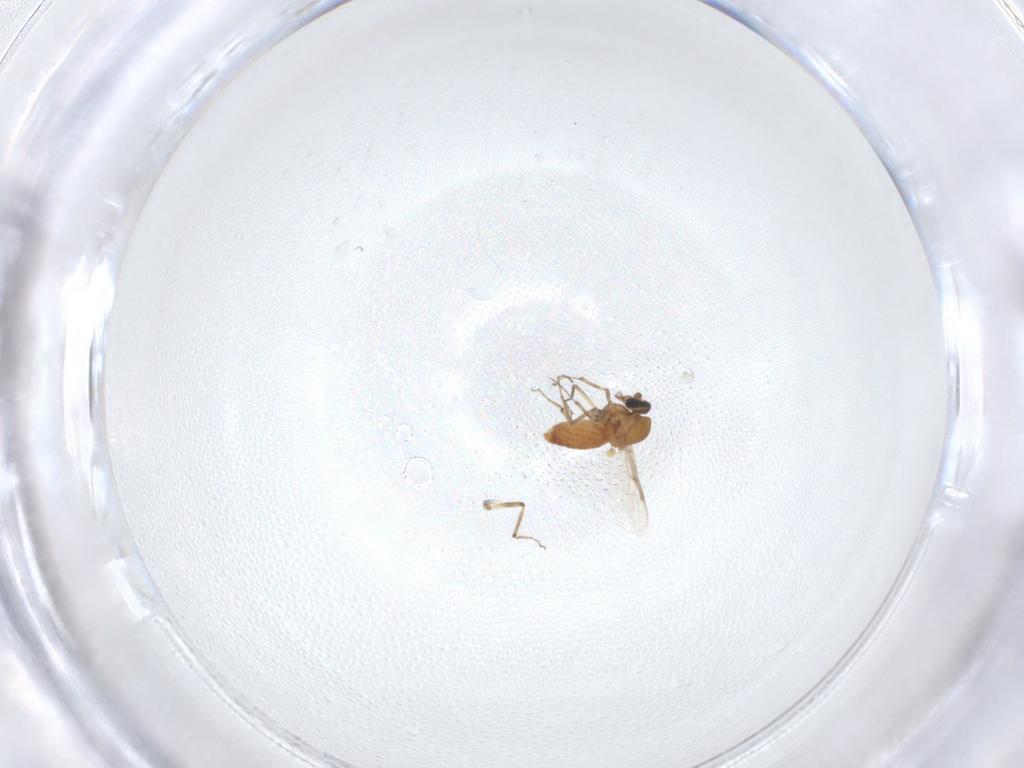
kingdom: Animalia
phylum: Arthropoda
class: Insecta
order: Diptera
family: Ceratopogonidae
